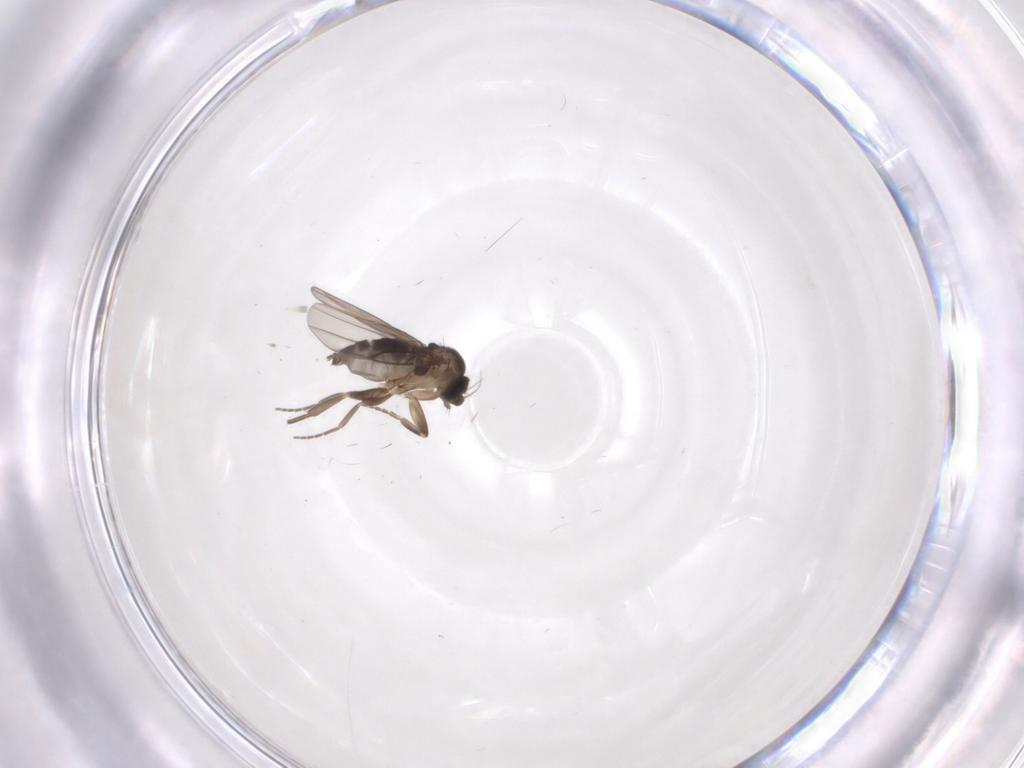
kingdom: Animalia
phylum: Arthropoda
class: Insecta
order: Diptera
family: Phoridae
